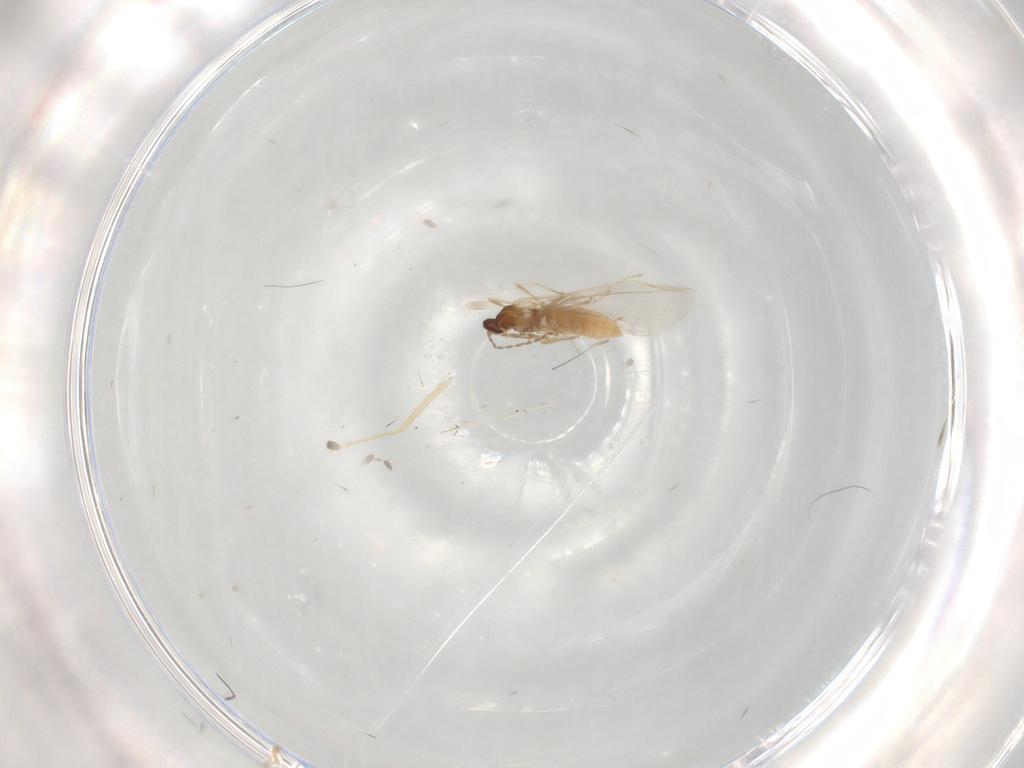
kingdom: Animalia
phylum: Arthropoda
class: Insecta
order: Diptera
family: Cecidomyiidae
